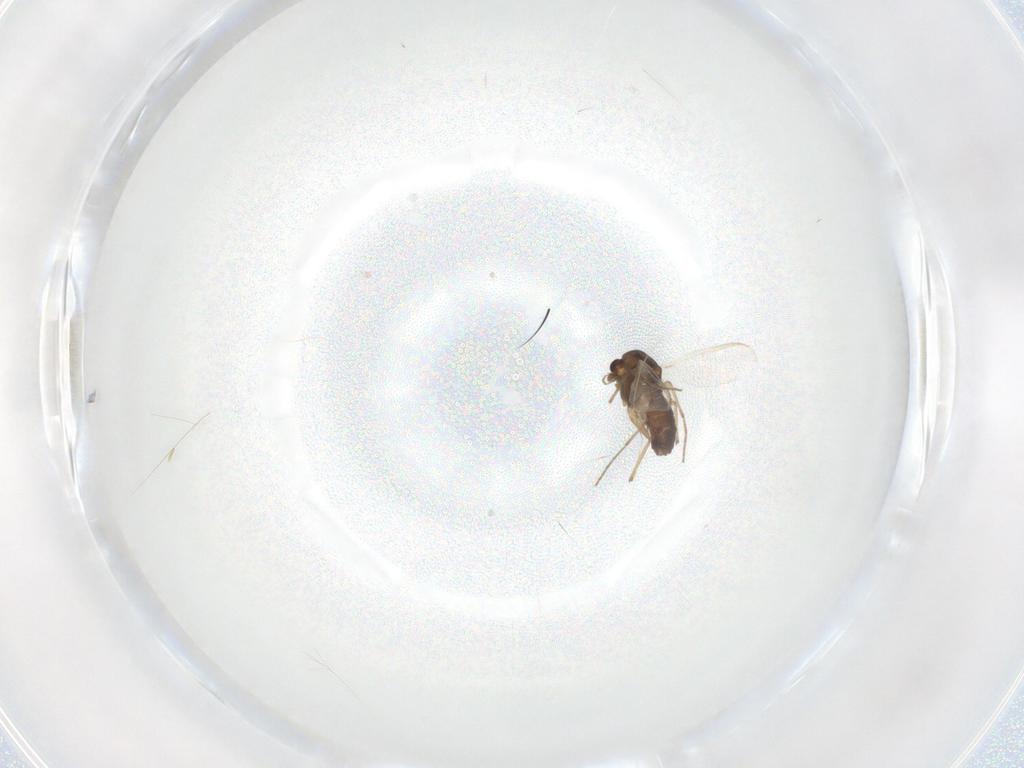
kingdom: Animalia
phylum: Arthropoda
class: Insecta
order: Diptera
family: Chironomidae
